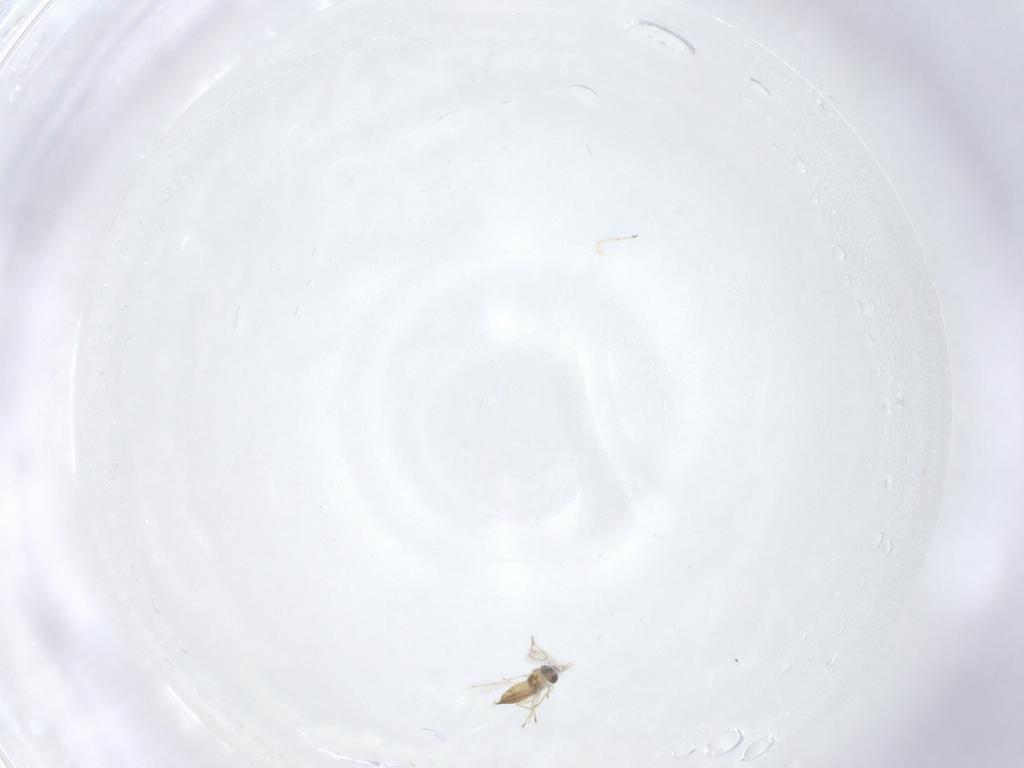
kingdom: Animalia
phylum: Arthropoda
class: Insecta
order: Hymenoptera
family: Trichogrammatidae
